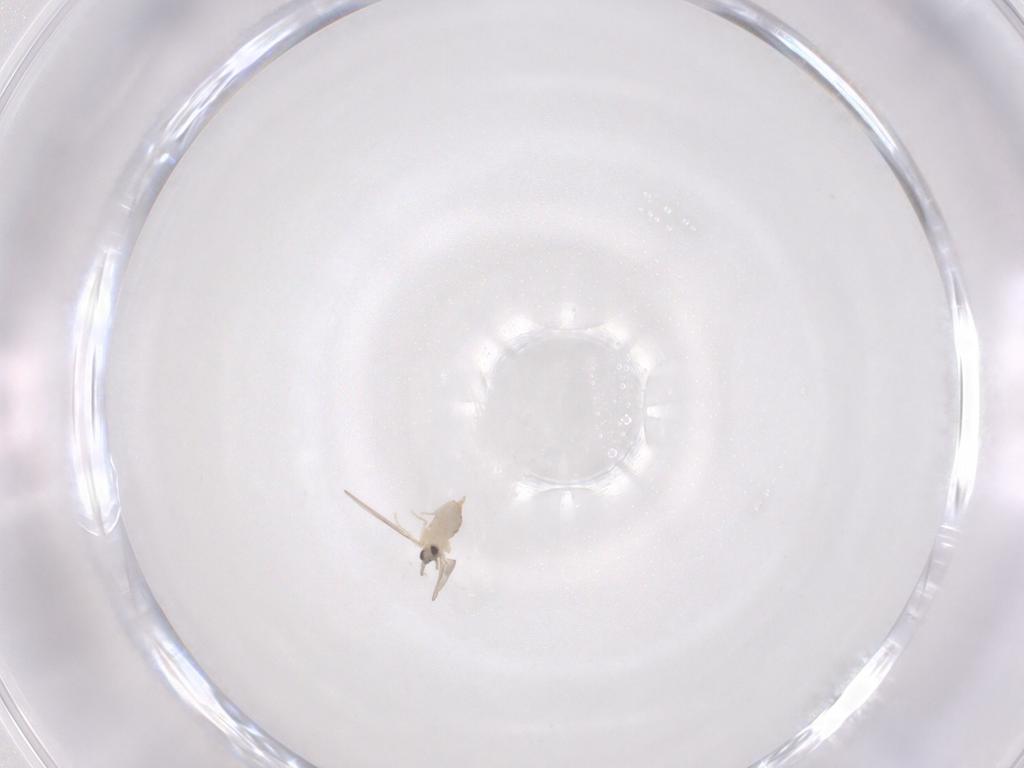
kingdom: Animalia
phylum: Arthropoda
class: Insecta
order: Diptera
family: Cecidomyiidae
